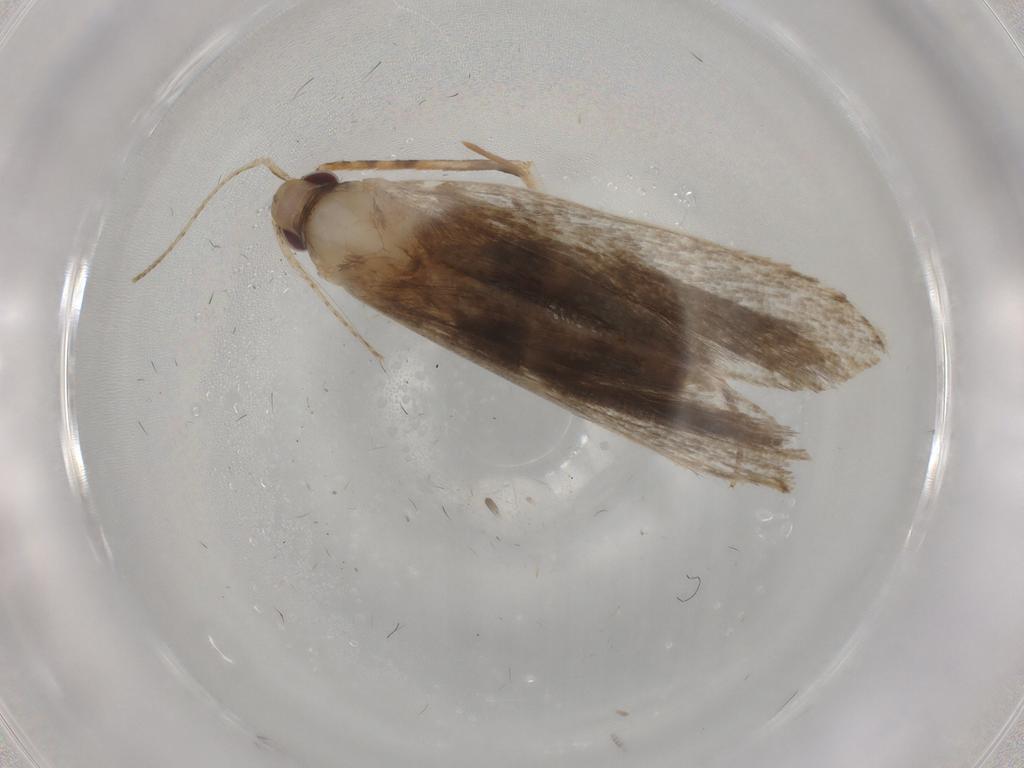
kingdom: Animalia
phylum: Arthropoda
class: Insecta
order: Lepidoptera
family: Gelechiidae
